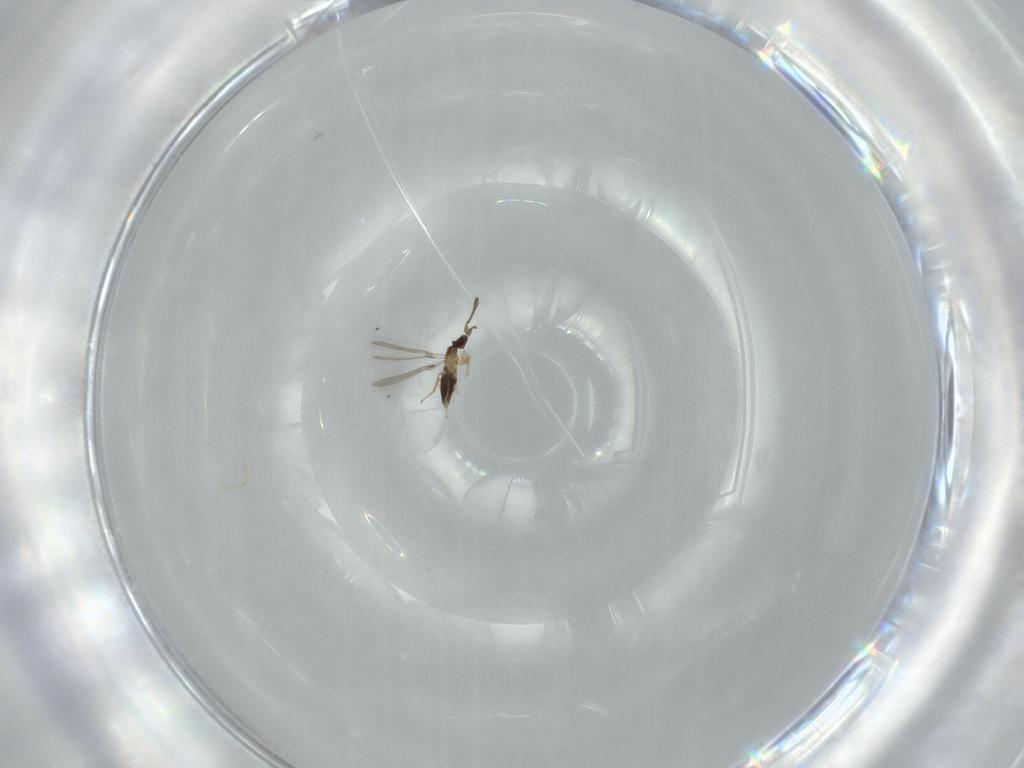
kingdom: Animalia
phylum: Arthropoda
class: Insecta
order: Hymenoptera
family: Mymaridae
